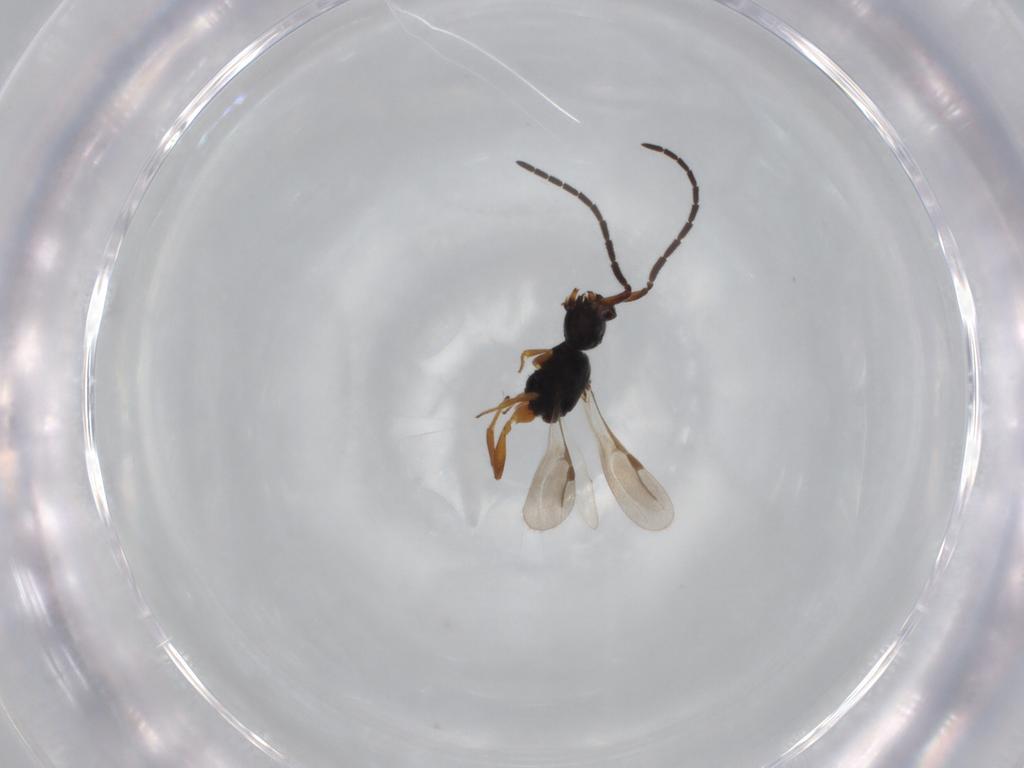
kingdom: Animalia
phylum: Arthropoda
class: Insecta
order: Hymenoptera
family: Megaspilidae
